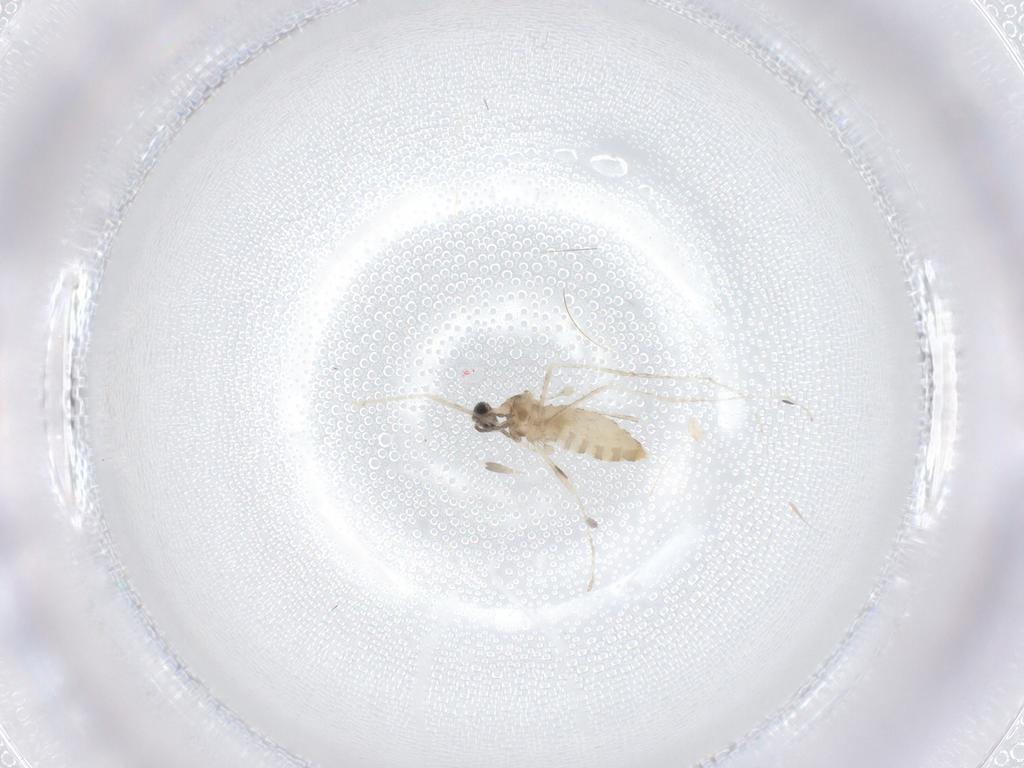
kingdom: Animalia
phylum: Arthropoda
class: Insecta
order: Diptera
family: Cecidomyiidae
